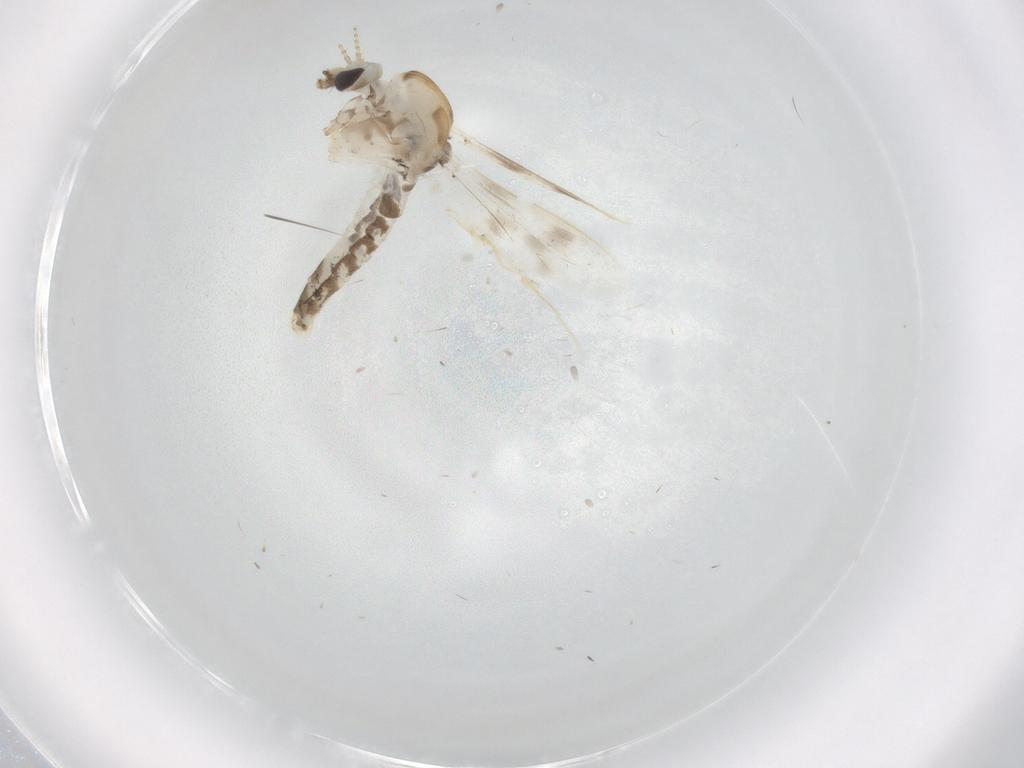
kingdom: Animalia
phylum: Arthropoda
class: Insecta
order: Diptera
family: Corethrellidae
